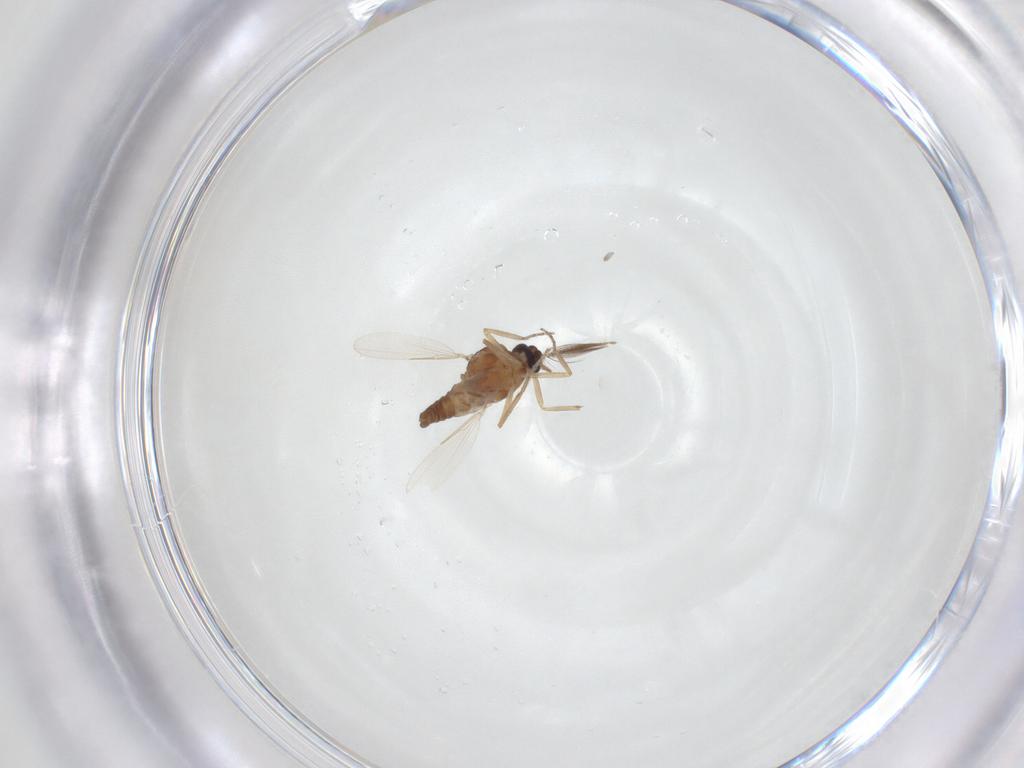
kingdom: Animalia
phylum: Arthropoda
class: Insecta
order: Diptera
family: Ceratopogonidae
